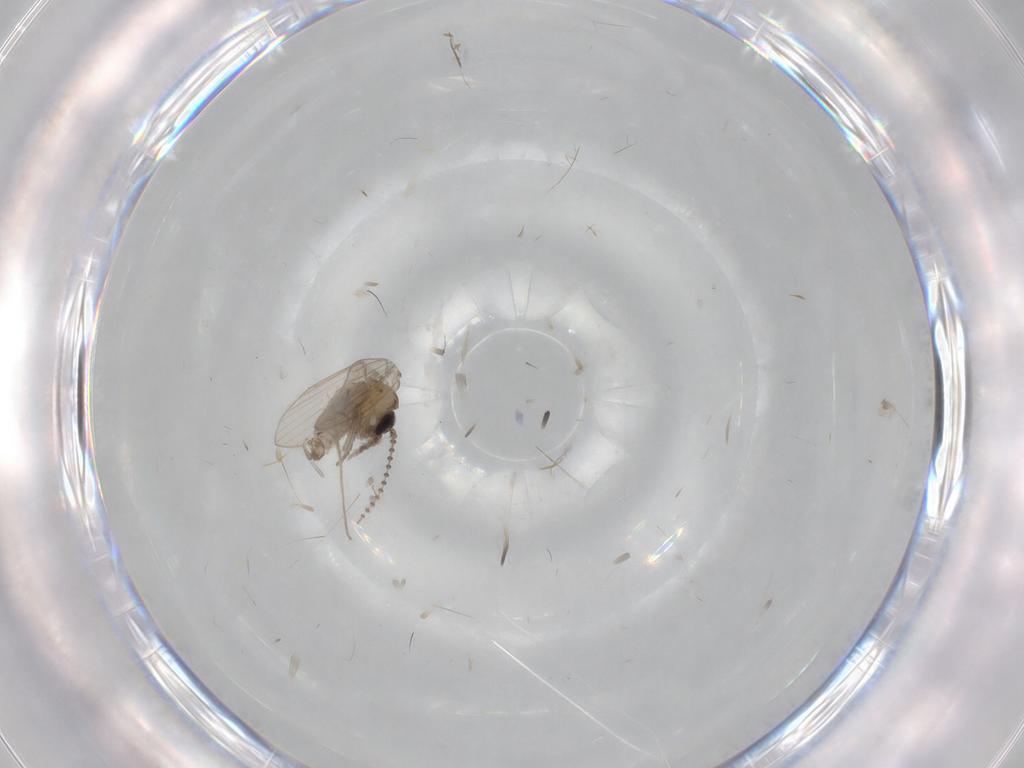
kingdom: Animalia
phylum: Arthropoda
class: Insecta
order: Diptera
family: Psychodidae
